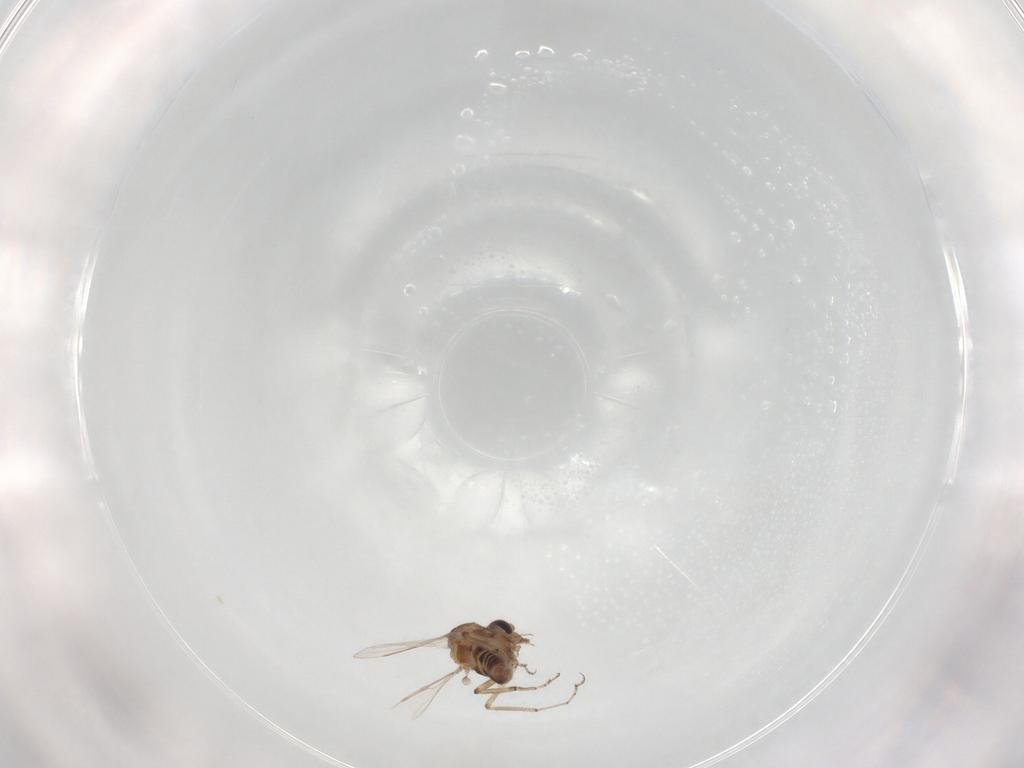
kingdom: Animalia
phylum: Arthropoda
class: Insecta
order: Diptera
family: Ceratopogonidae
